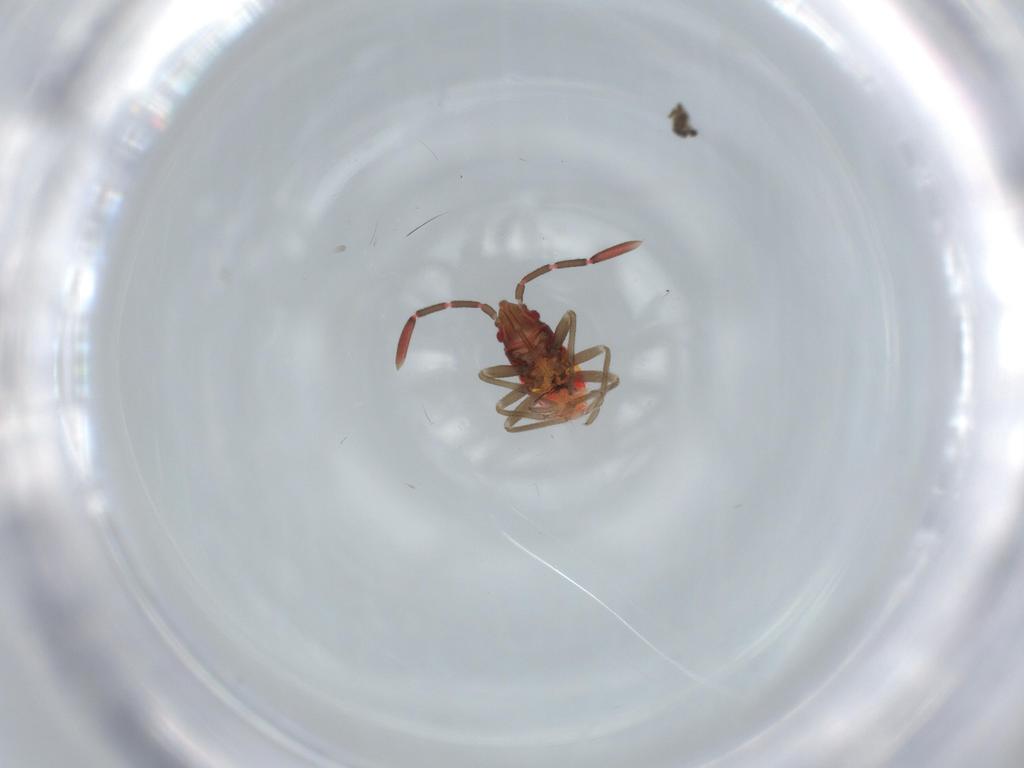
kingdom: Animalia
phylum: Arthropoda
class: Insecta
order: Hemiptera
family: Rhyparochromidae
